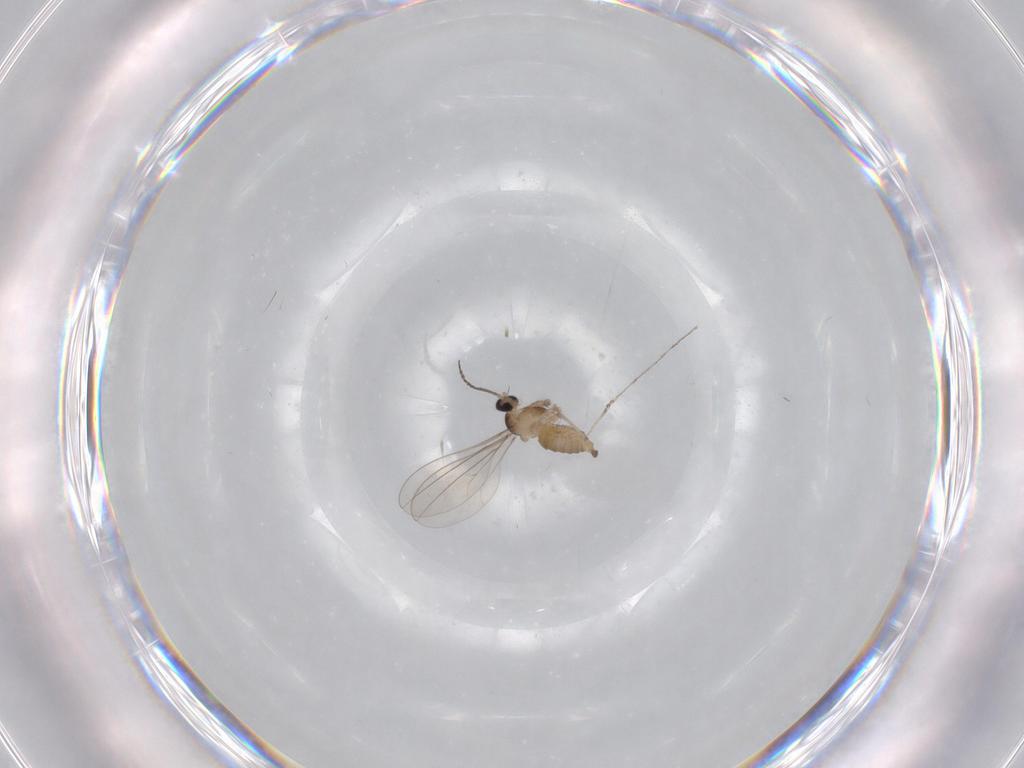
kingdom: Animalia
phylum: Arthropoda
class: Insecta
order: Diptera
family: Cecidomyiidae
